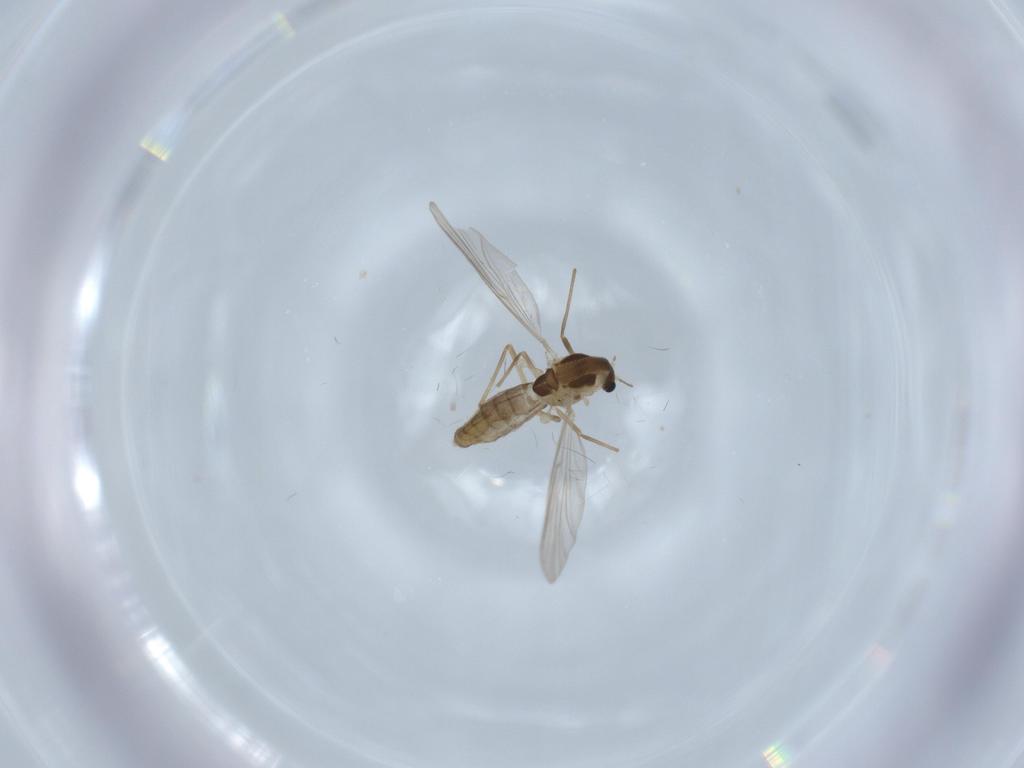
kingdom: Animalia
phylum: Arthropoda
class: Insecta
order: Diptera
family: Chironomidae
